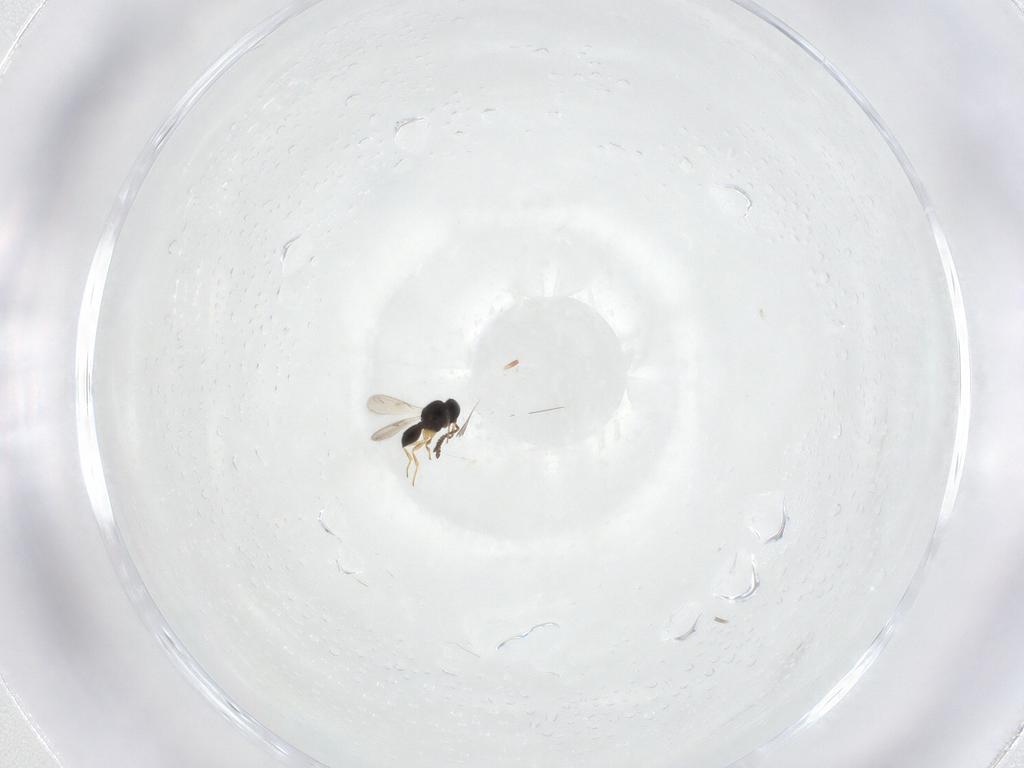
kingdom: Animalia
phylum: Arthropoda
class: Insecta
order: Hymenoptera
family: Scelionidae
